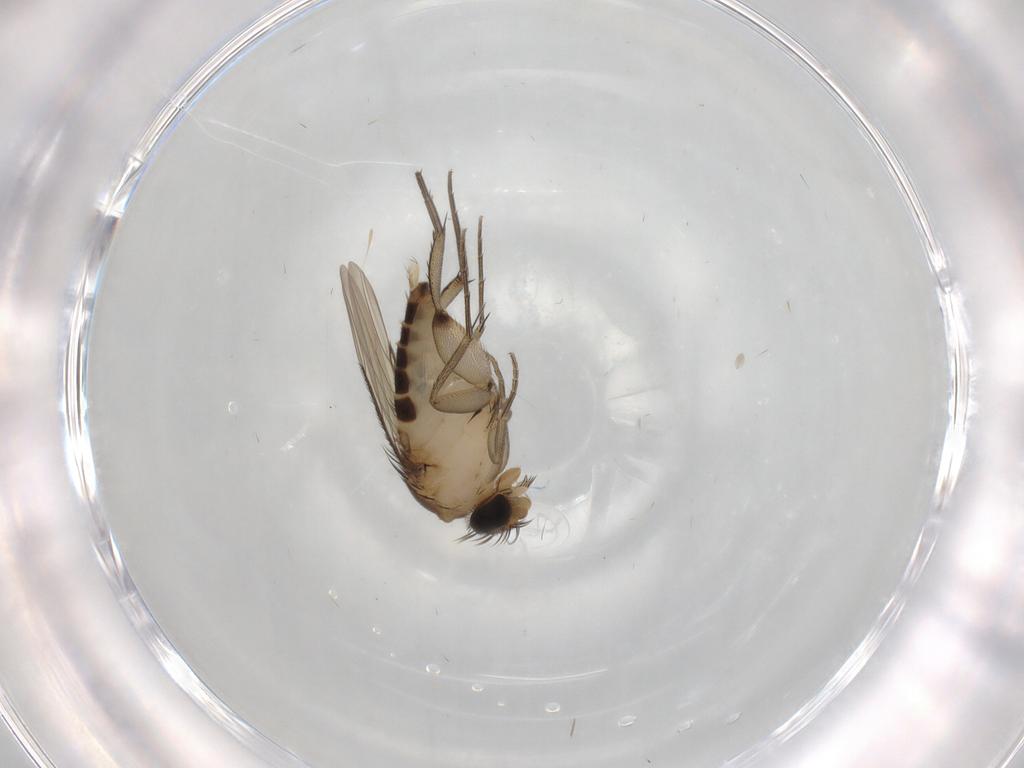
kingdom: Animalia
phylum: Arthropoda
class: Insecta
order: Diptera
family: Phoridae
